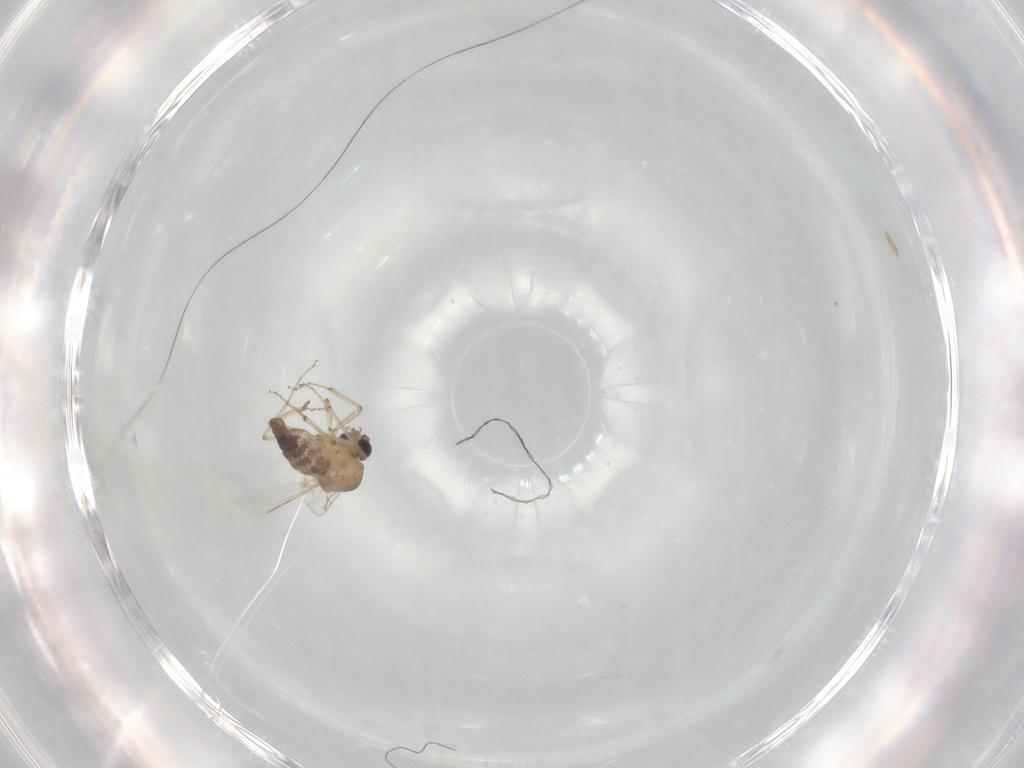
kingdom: Animalia
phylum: Arthropoda
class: Insecta
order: Diptera
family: Ceratopogonidae
